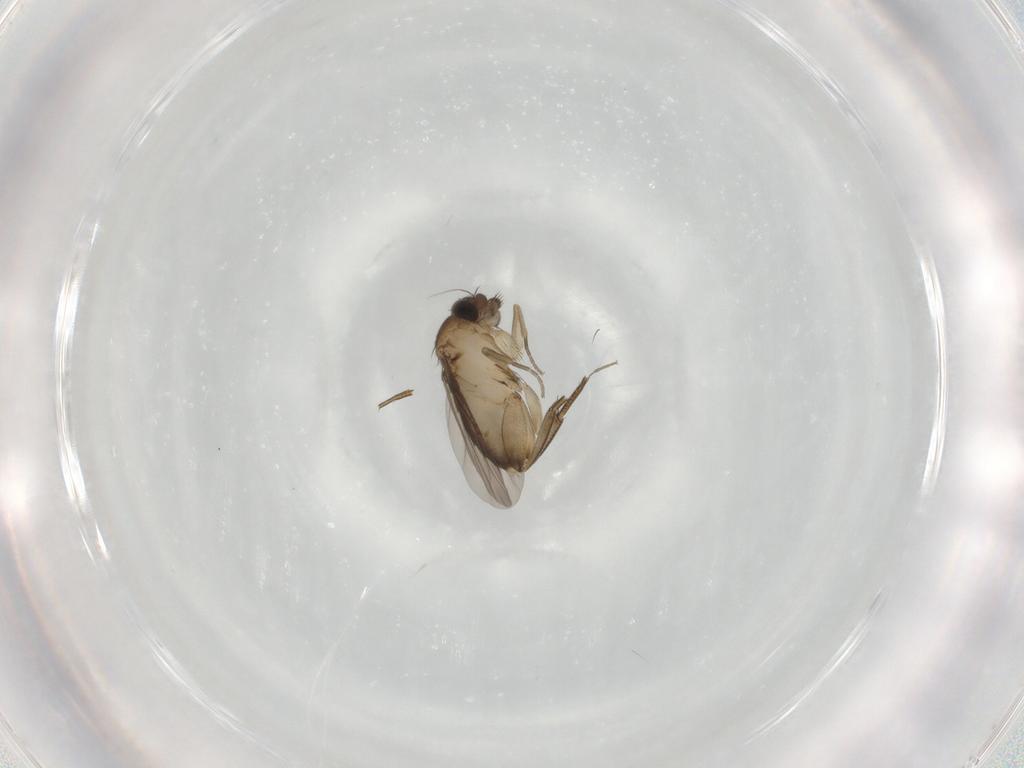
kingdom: Animalia
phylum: Arthropoda
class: Insecta
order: Diptera
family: Phoridae
